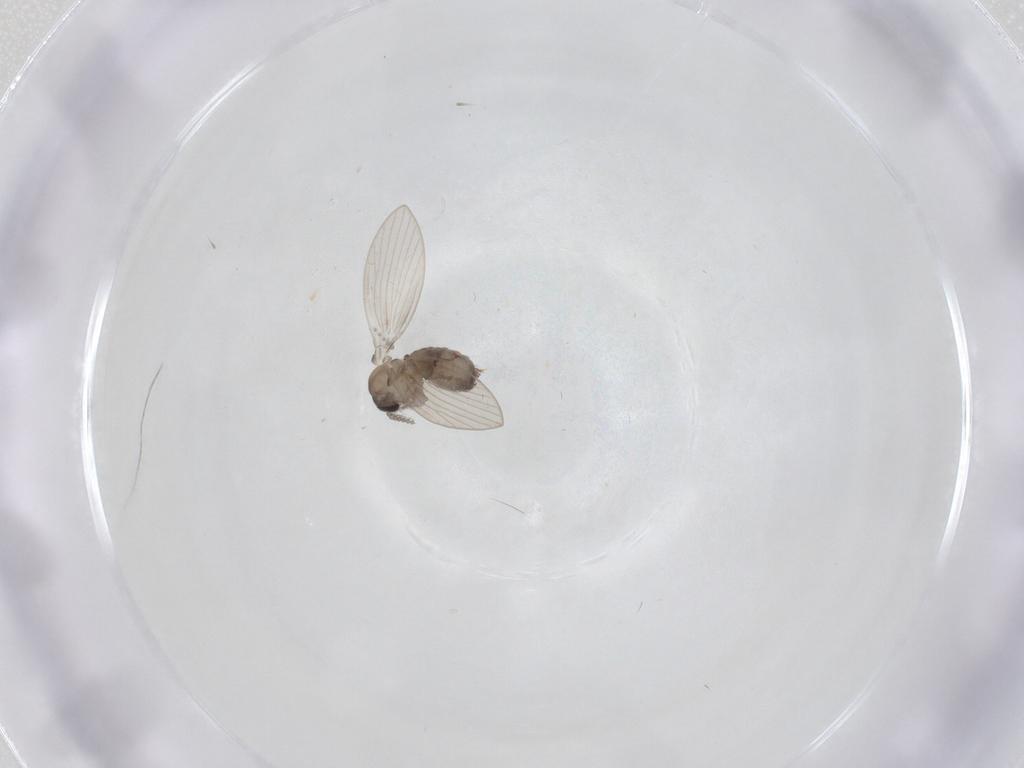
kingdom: Animalia
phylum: Arthropoda
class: Insecta
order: Diptera
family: Psychodidae
